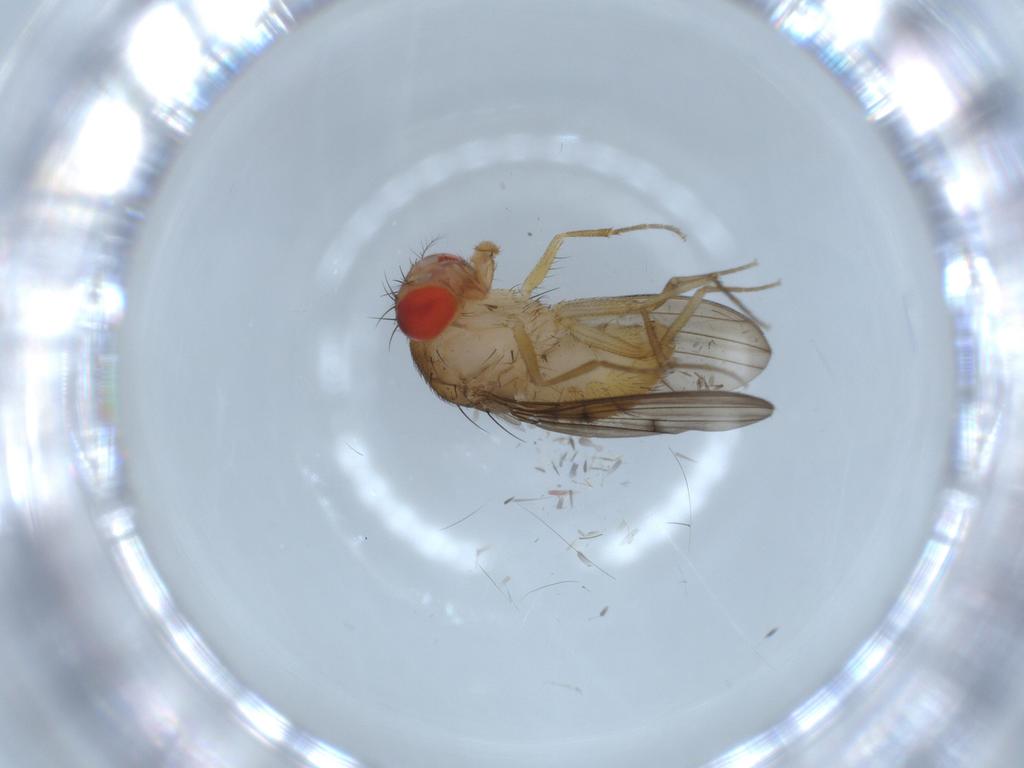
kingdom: Animalia
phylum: Arthropoda
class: Insecta
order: Diptera
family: Drosophilidae
